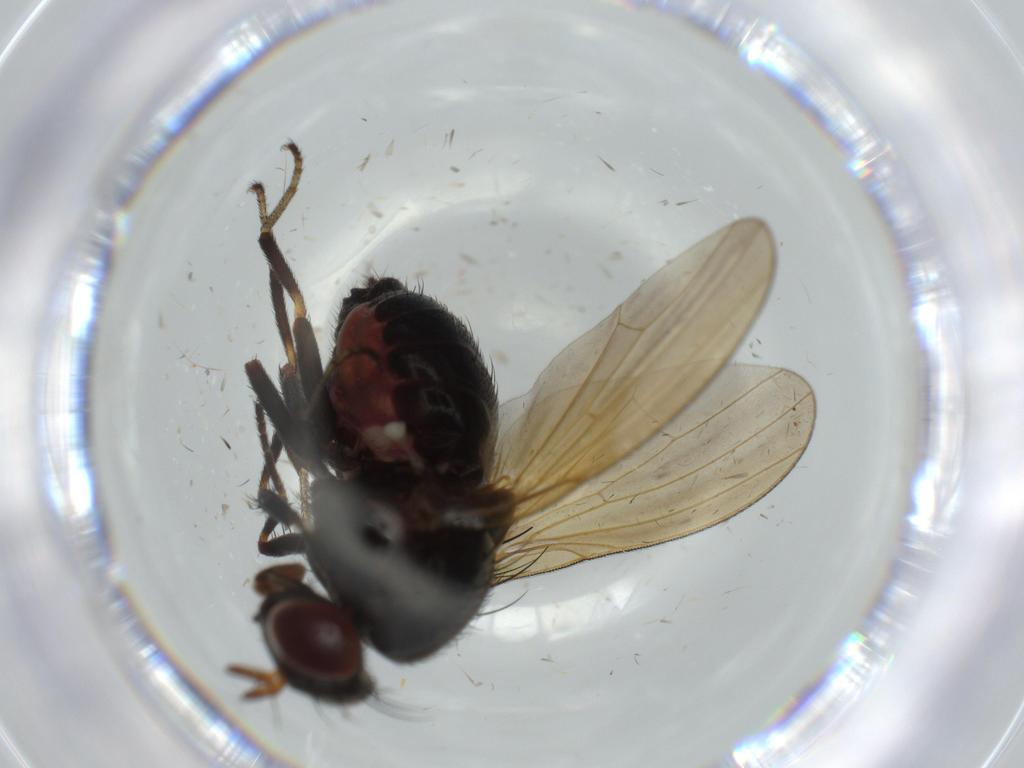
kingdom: Animalia
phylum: Arthropoda
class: Insecta
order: Diptera
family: Lauxaniidae
